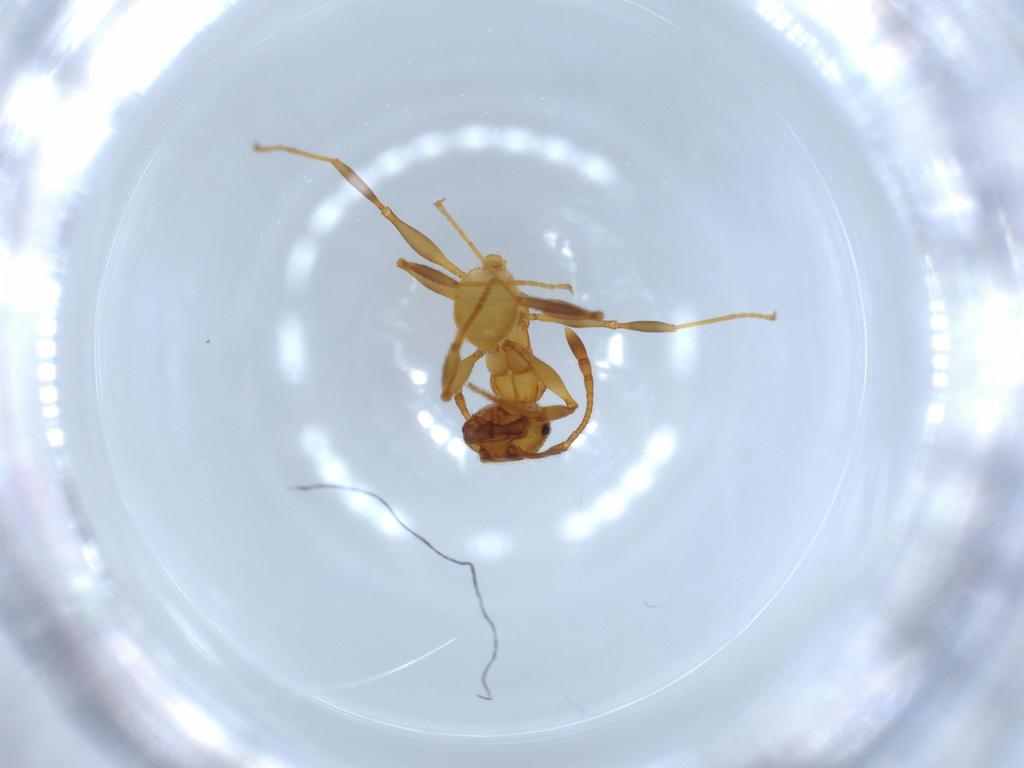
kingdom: Animalia
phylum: Arthropoda
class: Insecta
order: Hymenoptera
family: Formicidae
